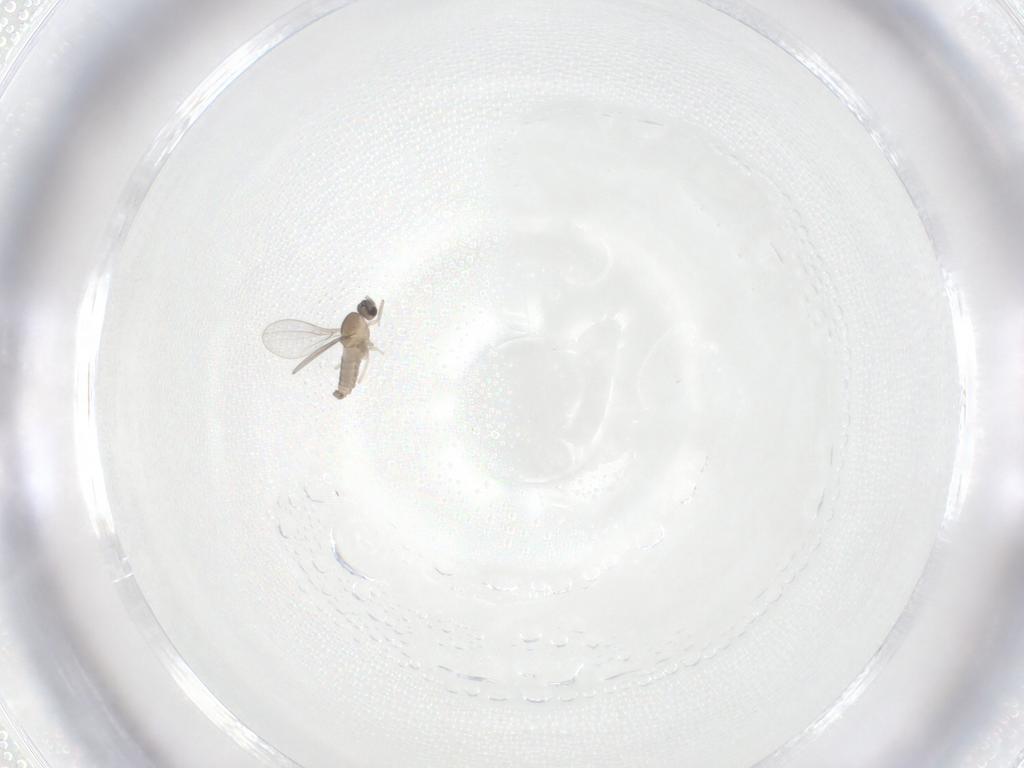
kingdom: Animalia
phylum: Arthropoda
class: Insecta
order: Diptera
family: Cecidomyiidae
